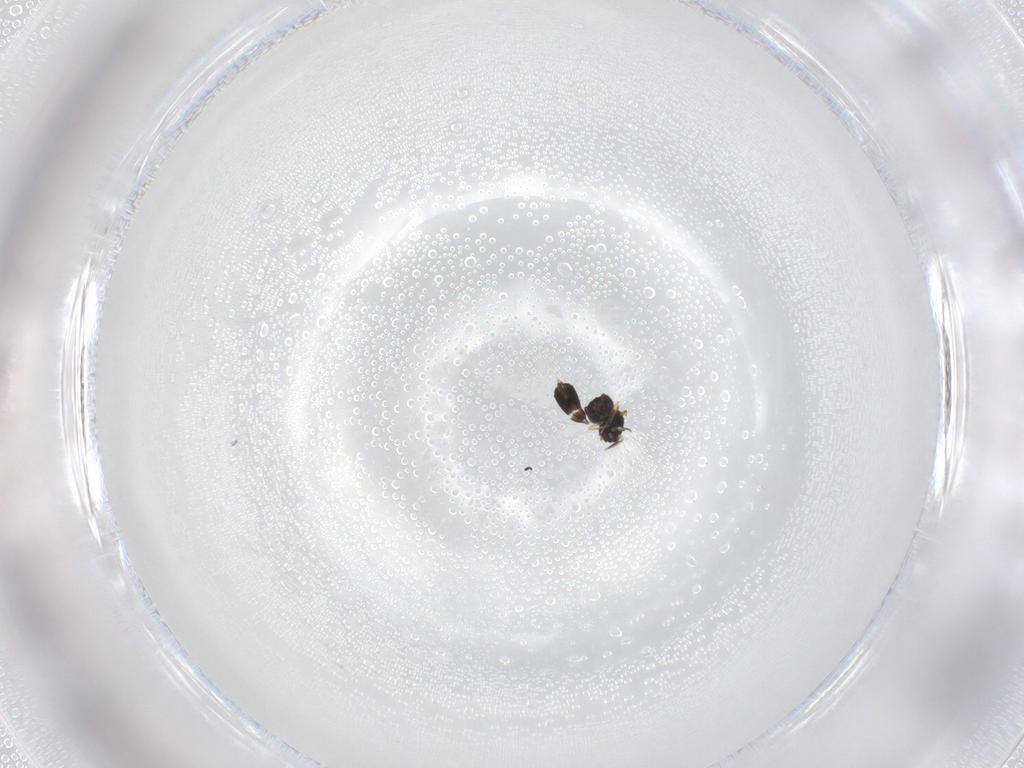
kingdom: Animalia
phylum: Arthropoda
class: Insecta
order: Hymenoptera
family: Eulophidae
